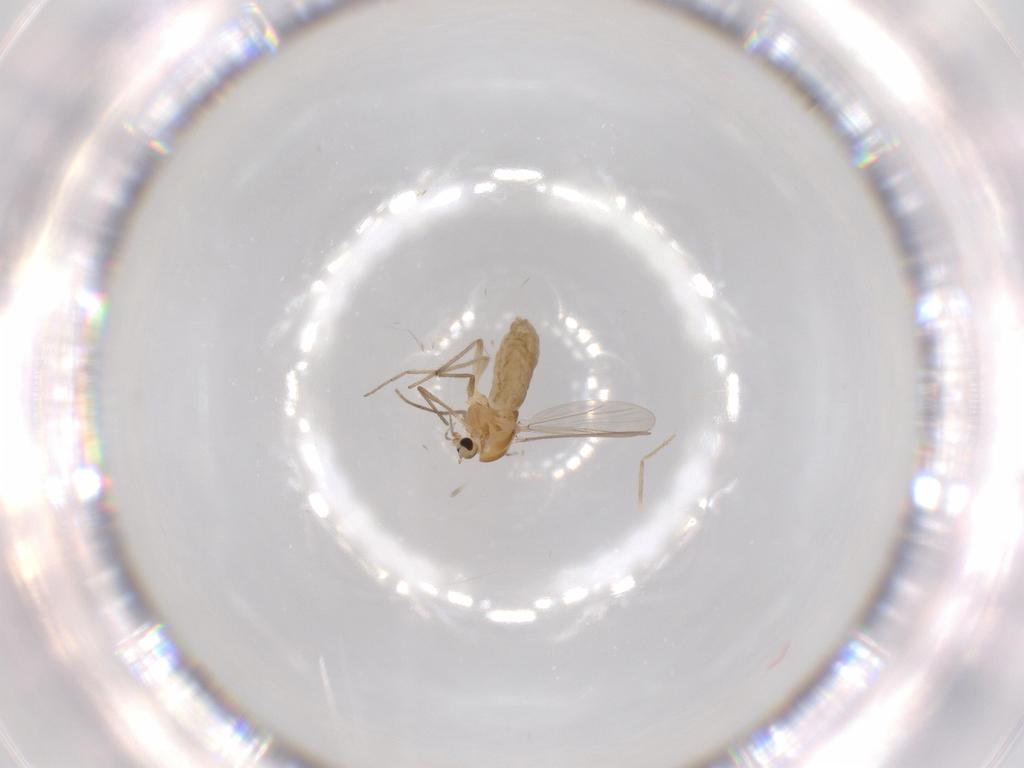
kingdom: Animalia
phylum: Arthropoda
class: Insecta
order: Diptera
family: Chironomidae
